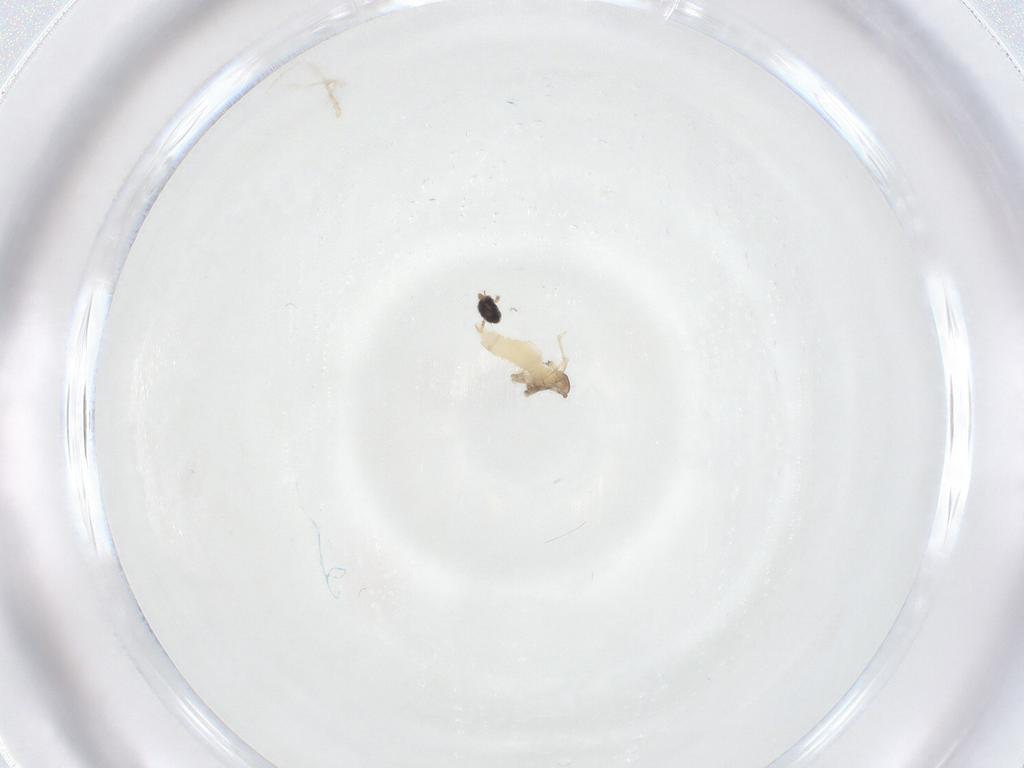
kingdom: Animalia
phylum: Arthropoda
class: Insecta
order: Diptera
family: Cecidomyiidae
